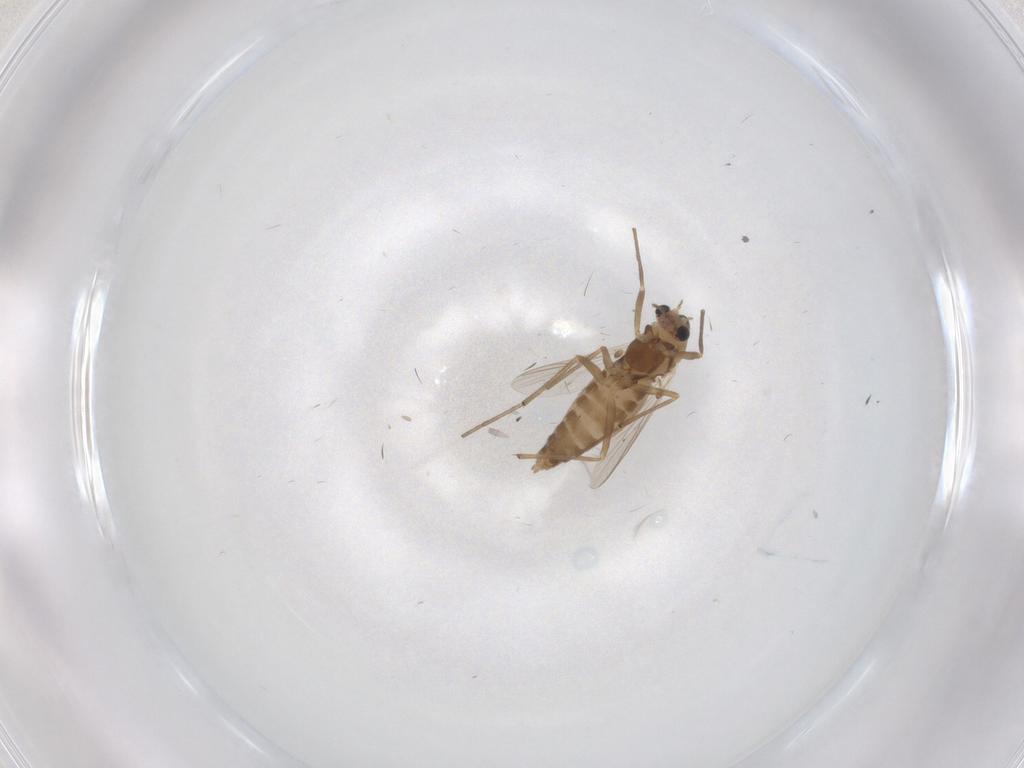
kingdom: Animalia
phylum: Arthropoda
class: Insecta
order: Diptera
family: Chironomidae
